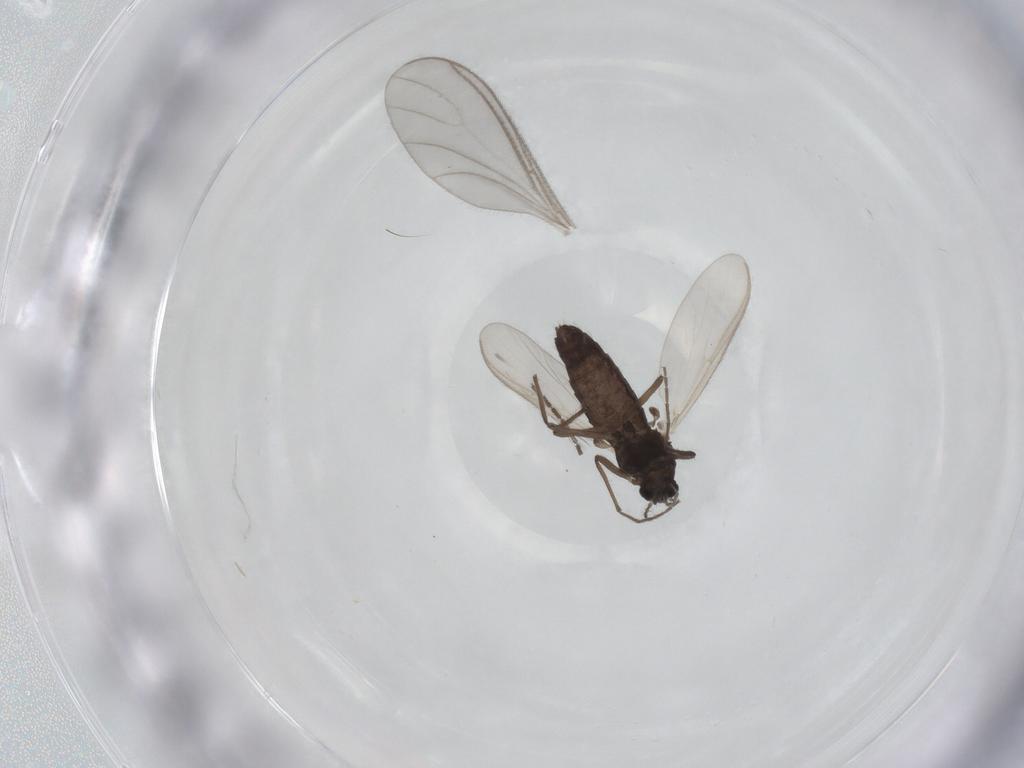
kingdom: Animalia
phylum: Arthropoda
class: Insecta
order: Diptera
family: Sciaridae
